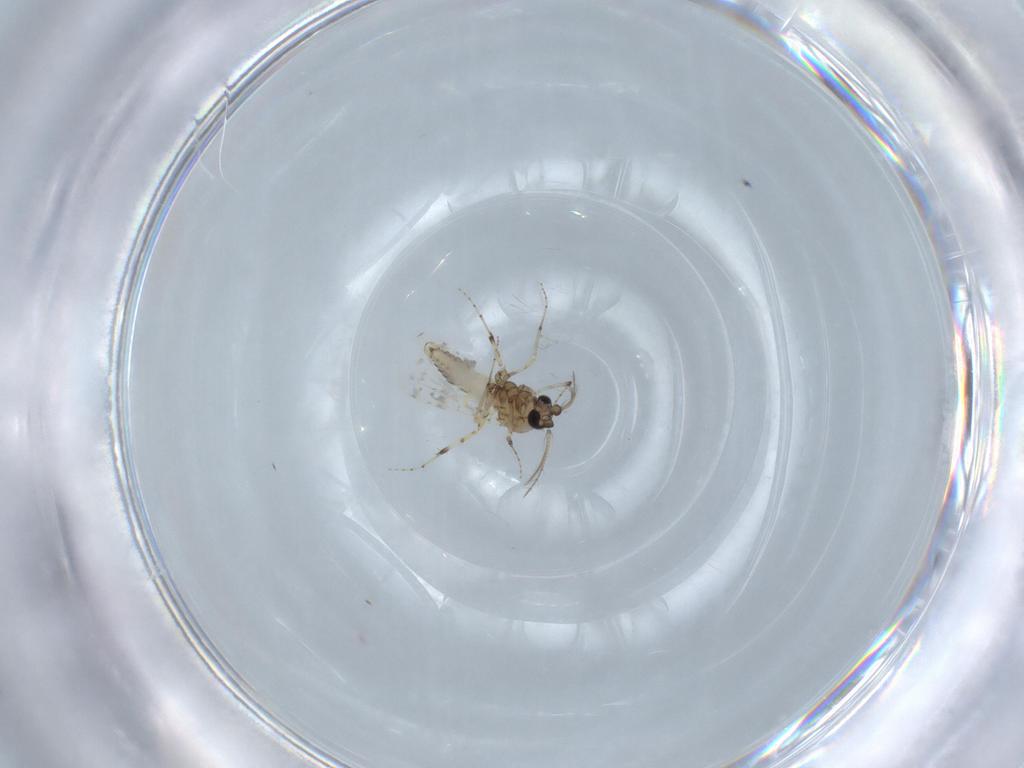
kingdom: Animalia
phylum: Arthropoda
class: Insecta
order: Diptera
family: Ceratopogonidae
